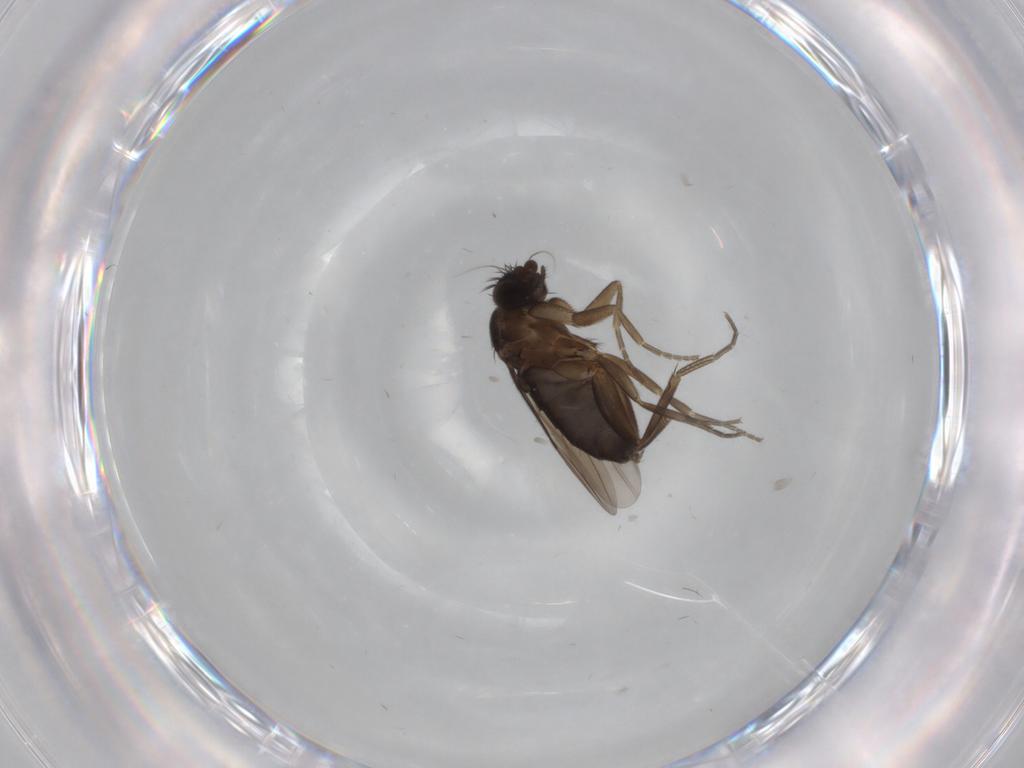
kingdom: Animalia
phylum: Arthropoda
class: Insecta
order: Diptera
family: Phoridae
